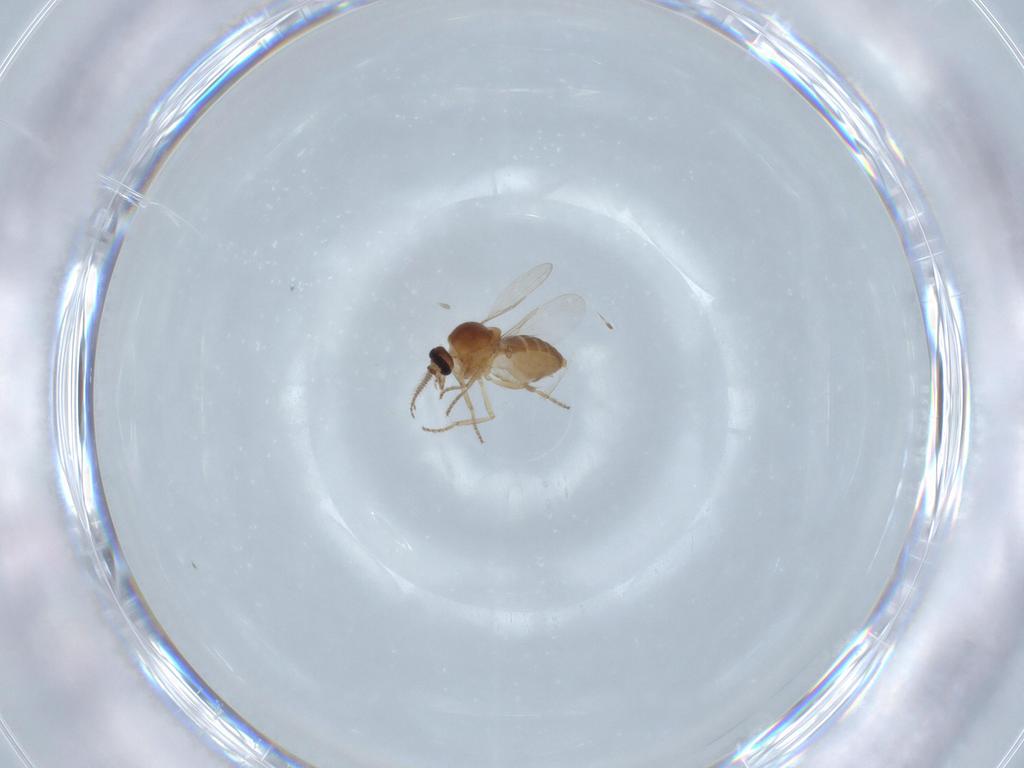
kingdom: Animalia
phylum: Arthropoda
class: Insecta
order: Diptera
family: Ceratopogonidae
